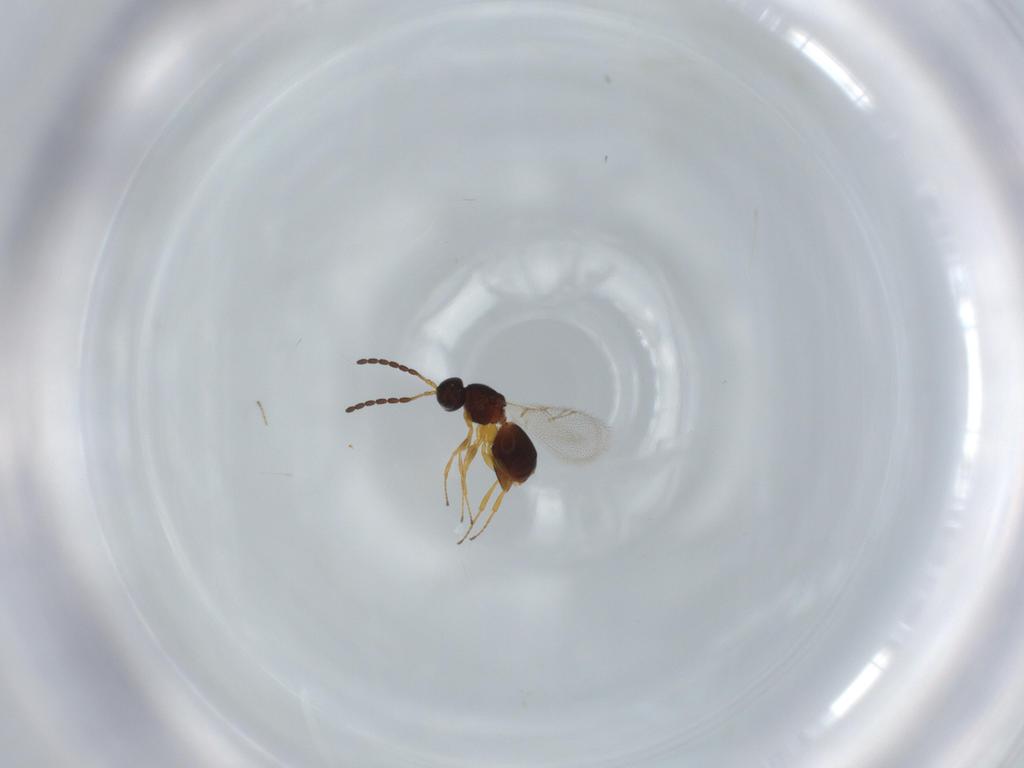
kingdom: Animalia
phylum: Arthropoda
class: Insecta
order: Hymenoptera
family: Figitidae
